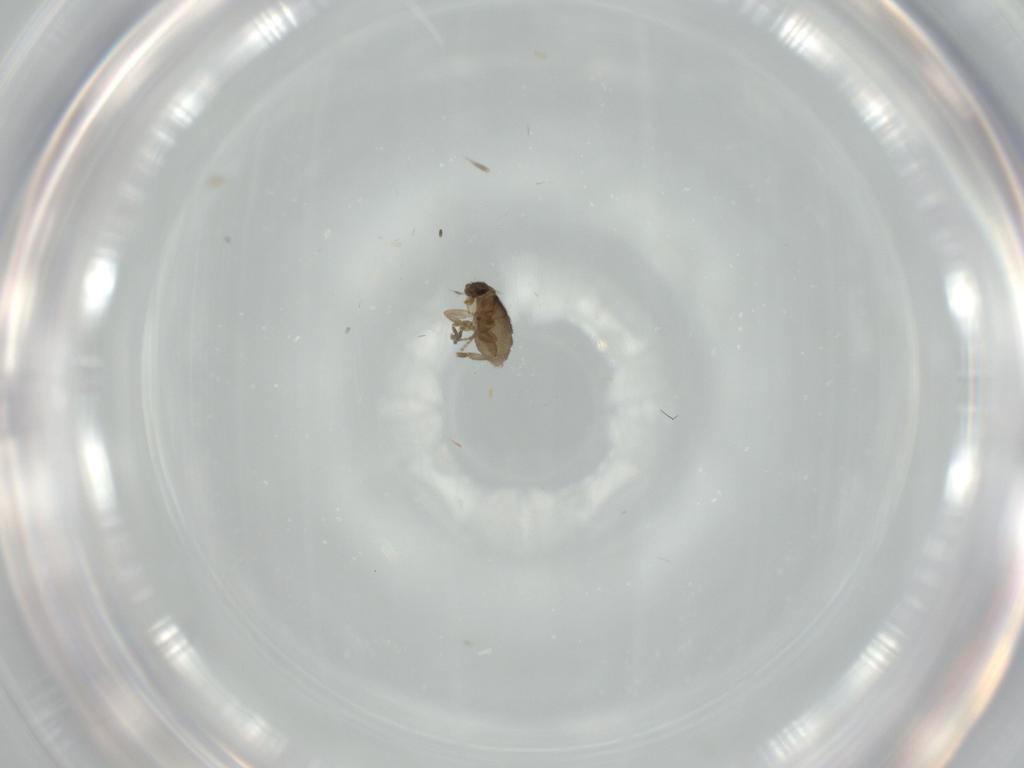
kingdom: Animalia
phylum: Arthropoda
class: Insecta
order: Diptera
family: Phoridae
